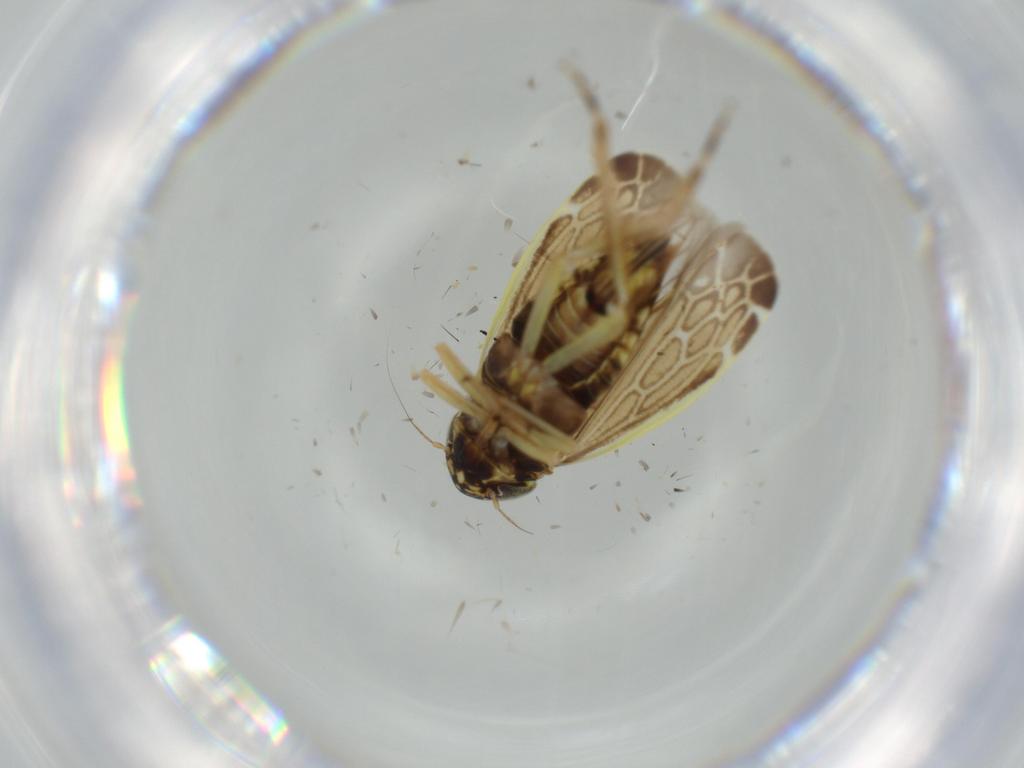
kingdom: Animalia
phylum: Arthropoda
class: Insecta
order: Hemiptera
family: Cicadellidae
